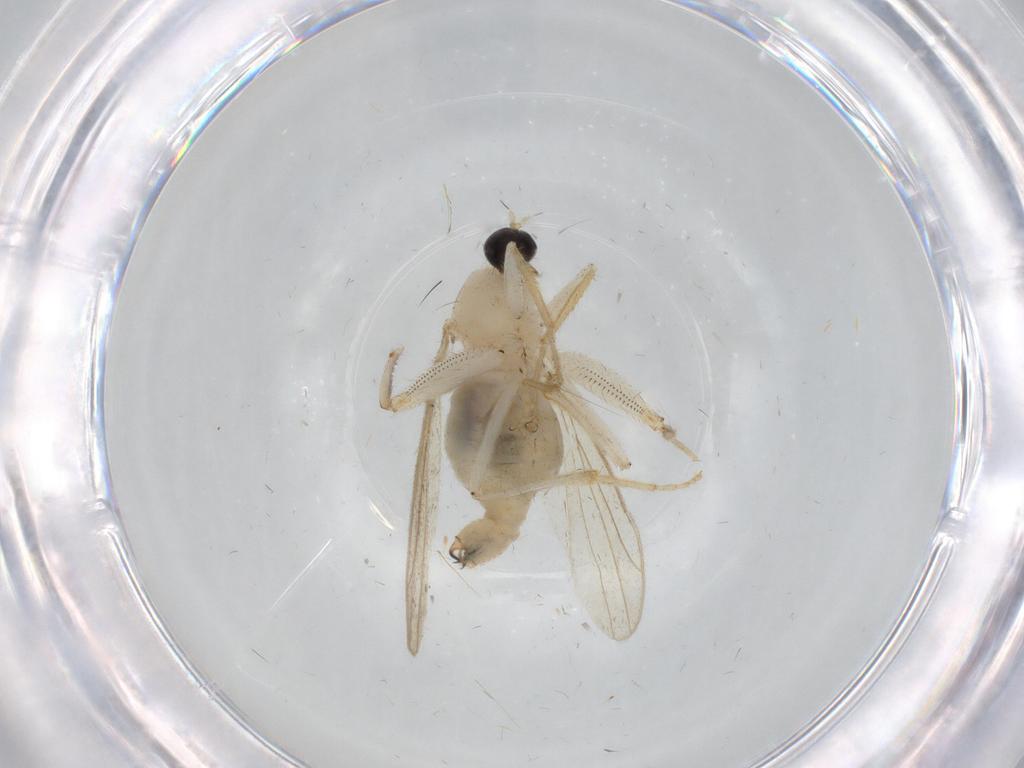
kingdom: Animalia
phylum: Arthropoda
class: Insecta
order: Diptera
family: Hybotidae
